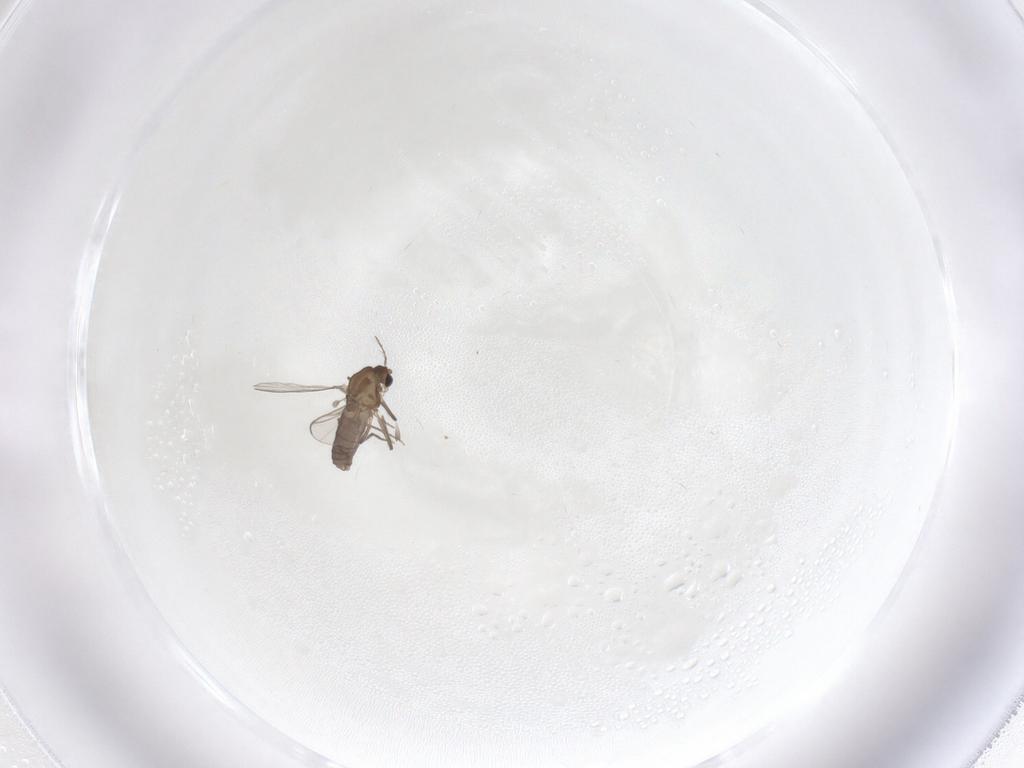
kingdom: Animalia
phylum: Arthropoda
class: Insecta
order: Diptera
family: Chironomidae
